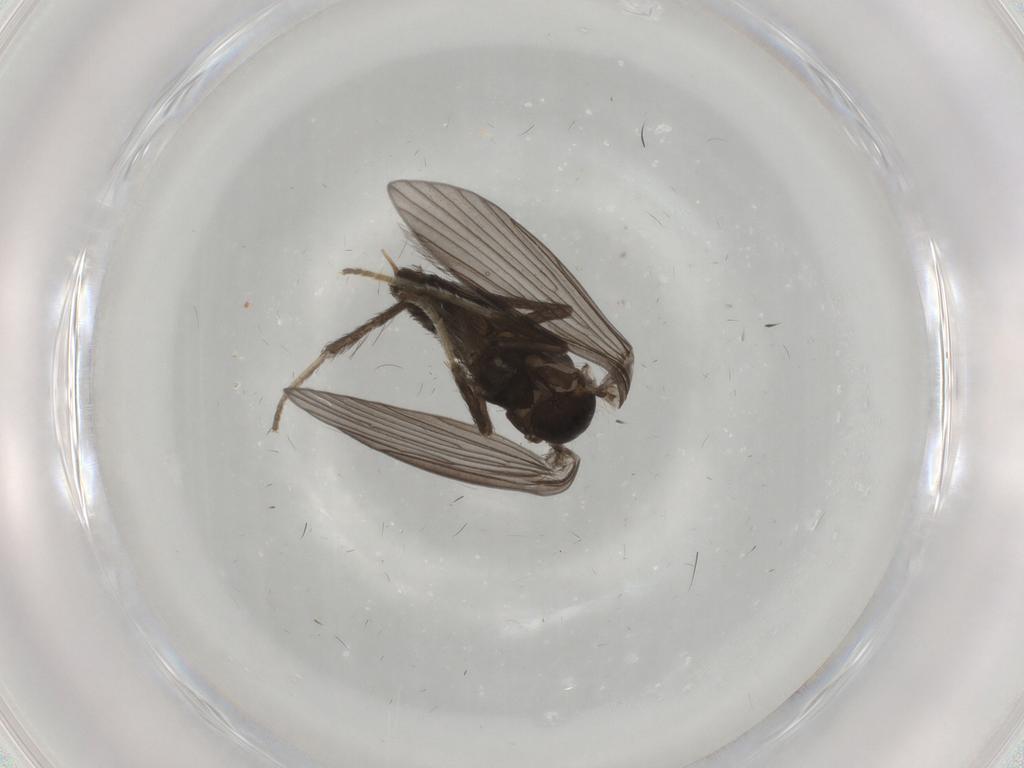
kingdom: Animalia
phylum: Arthropoda
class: Insecta
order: Diptera
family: Psychodidae
